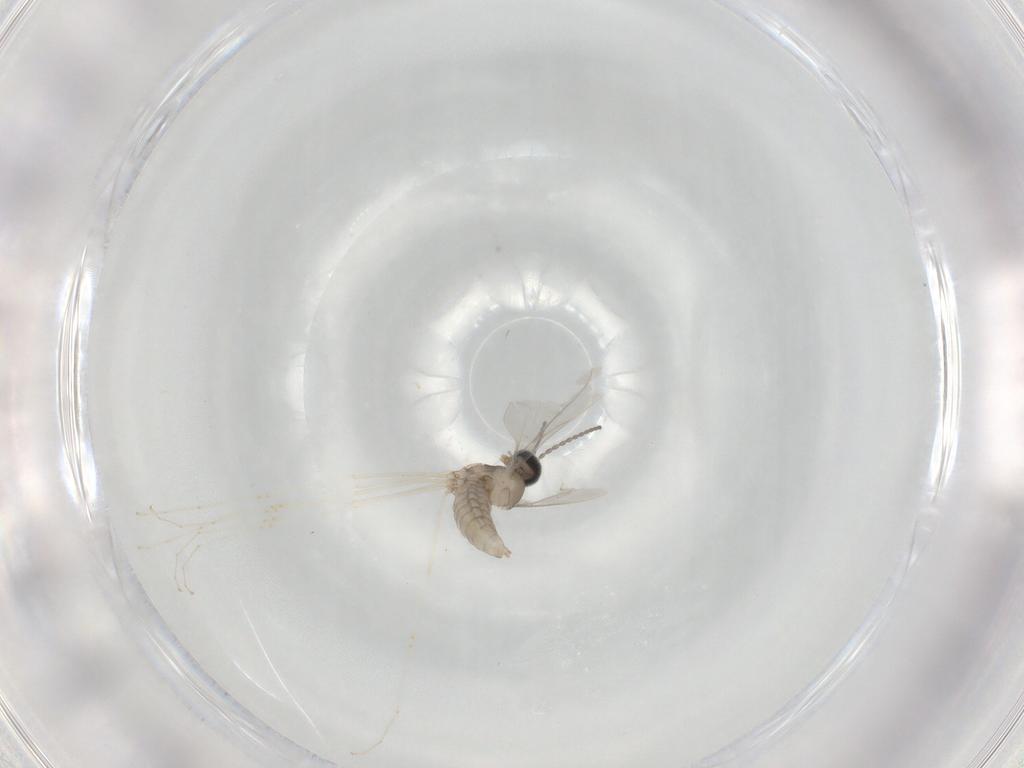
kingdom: Animalia
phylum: Arthropoda
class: Insecta
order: Diptera
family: Cecidomyiidae
